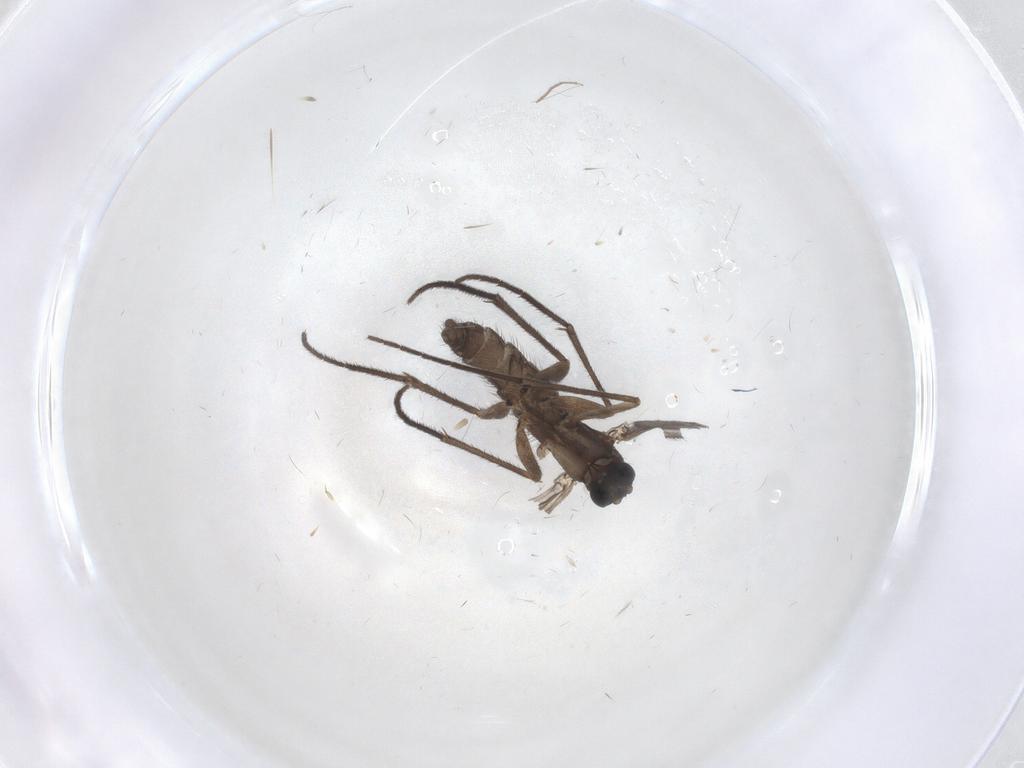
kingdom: Animalia
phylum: Arthropoda
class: Insecta
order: Diptera
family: Sciaridae
